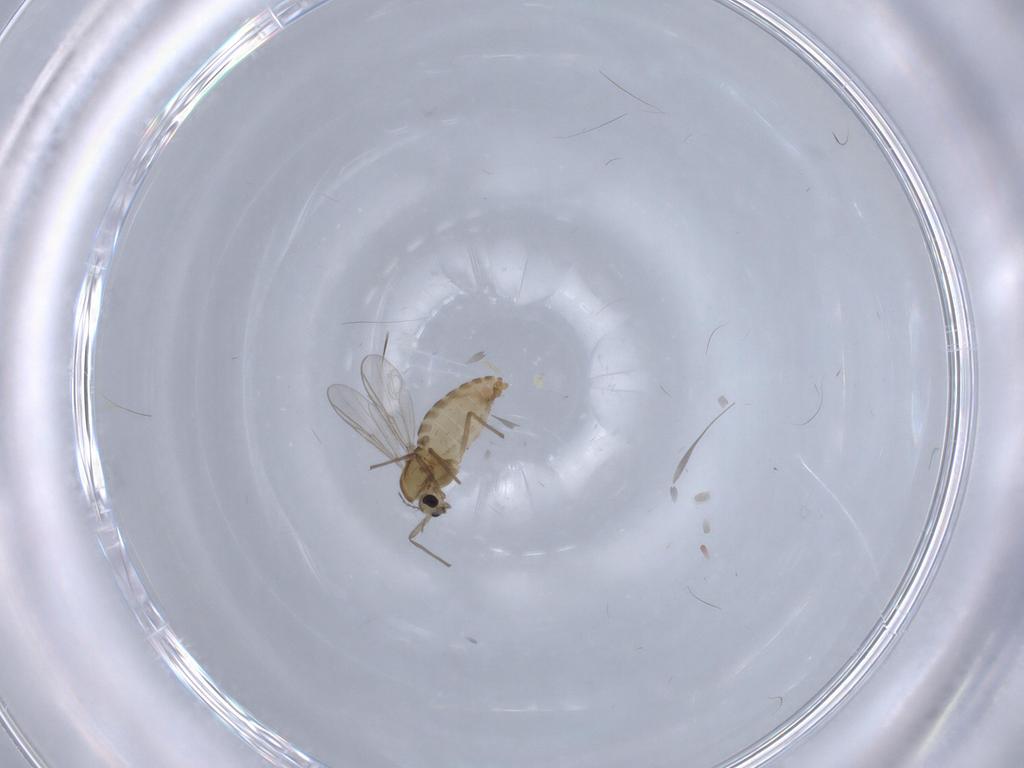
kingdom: Animalia
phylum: Arthropoda
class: Insecta
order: Diptera
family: Chironomidae
